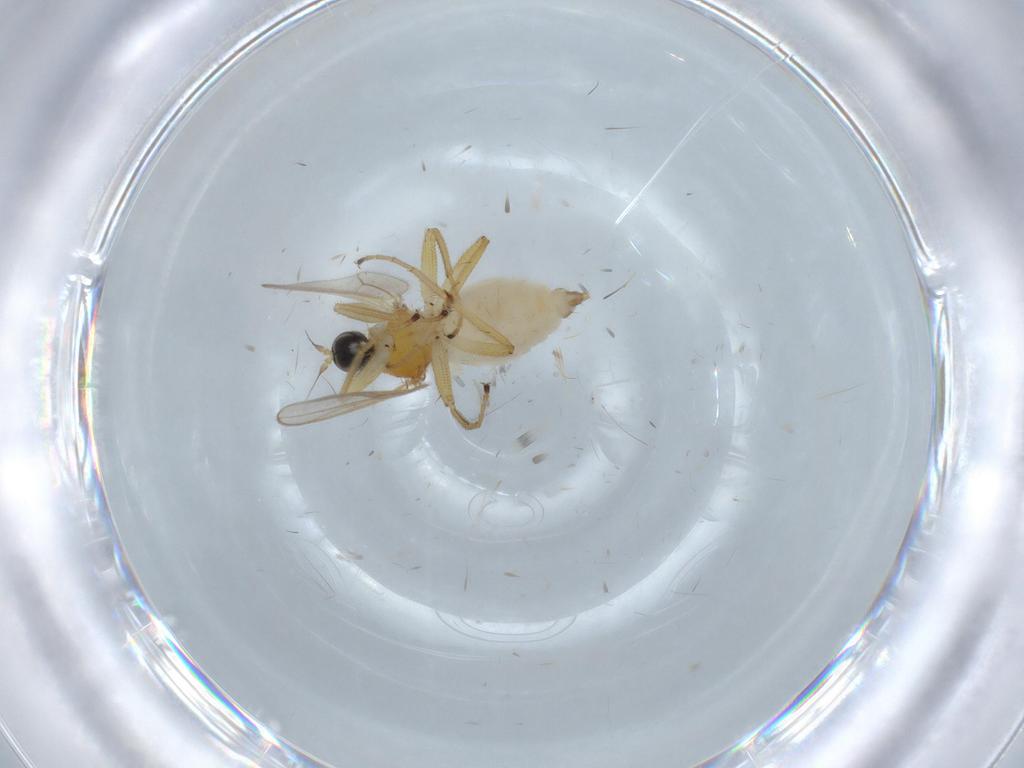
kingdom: Animalia
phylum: Arthropoda
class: Insecta
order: Diptera
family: Hybotidae
